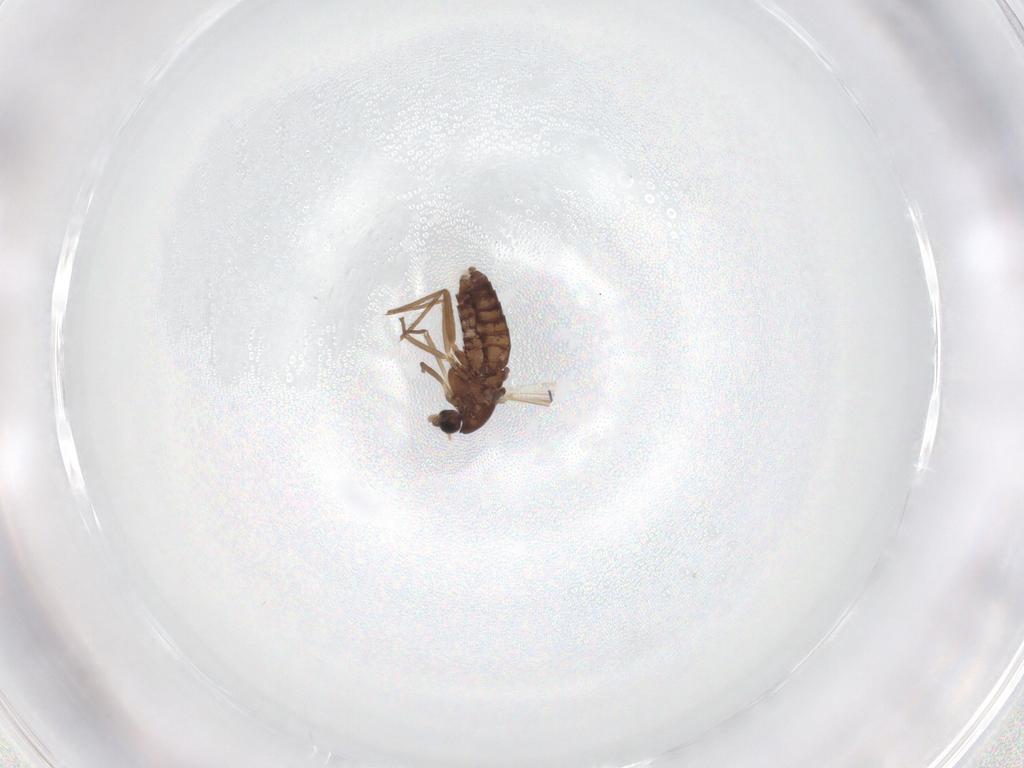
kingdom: Animalia
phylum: Arthropoda
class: Insecta
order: Diptera
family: Chironomidae
